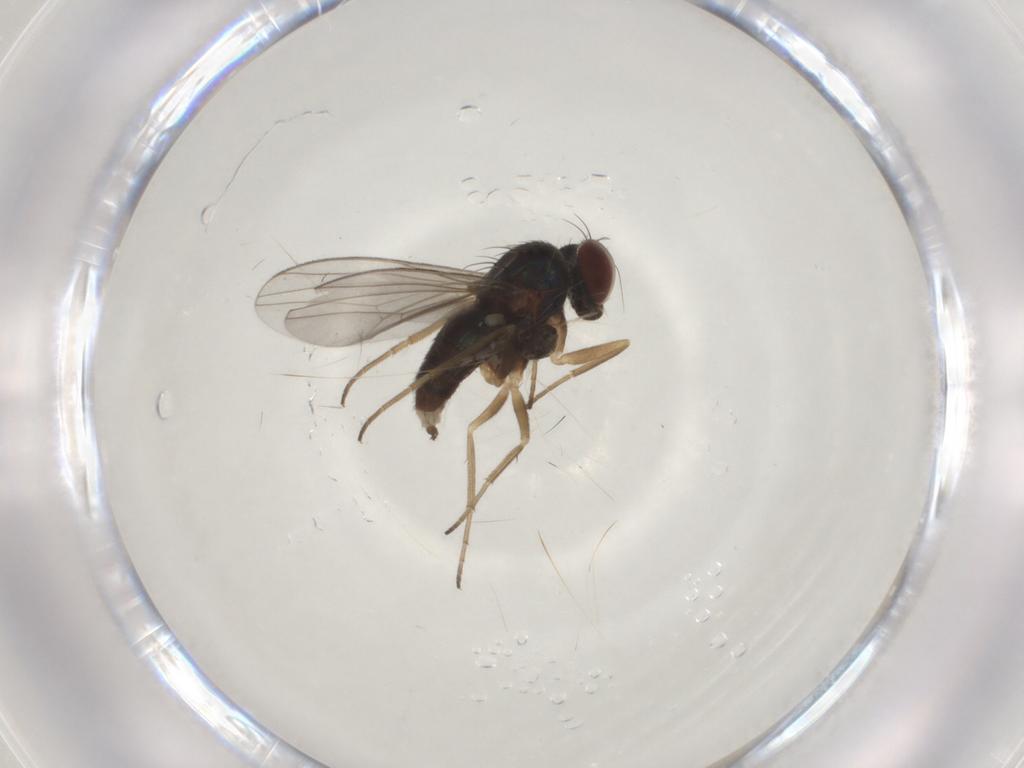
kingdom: Animalia
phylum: Arthropoda
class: Insecta
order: Diptera
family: Dolichopodidae
